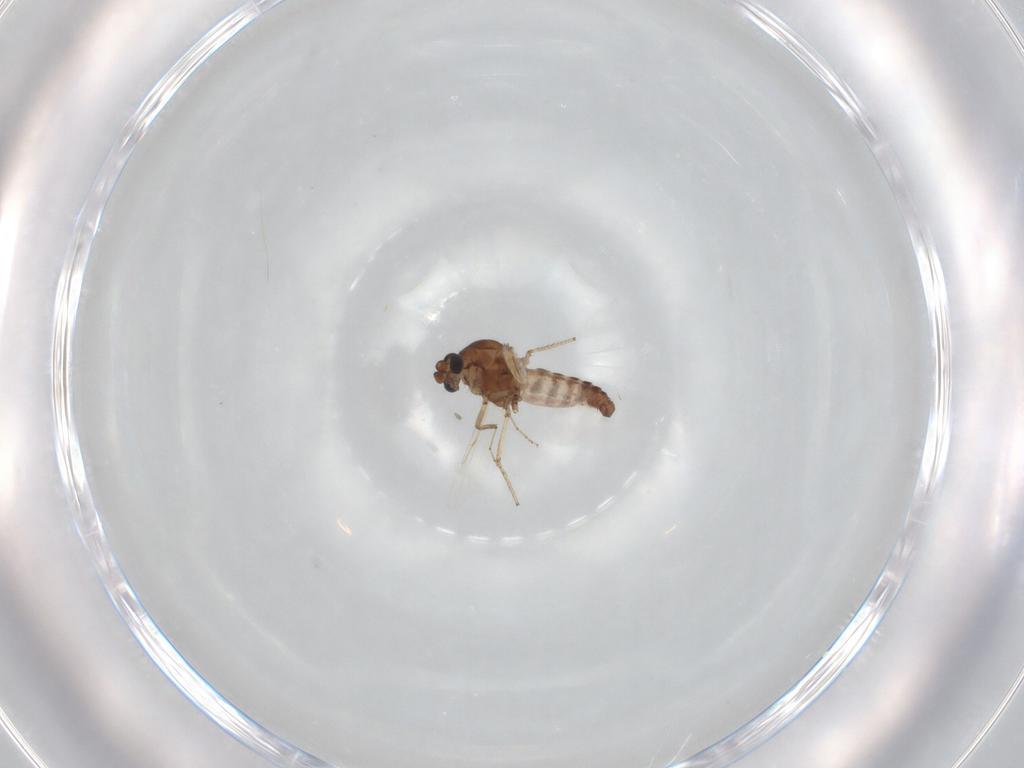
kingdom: Animalia
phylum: Arthropoda
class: Insecta
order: Diptera
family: Ceratopogonidae
